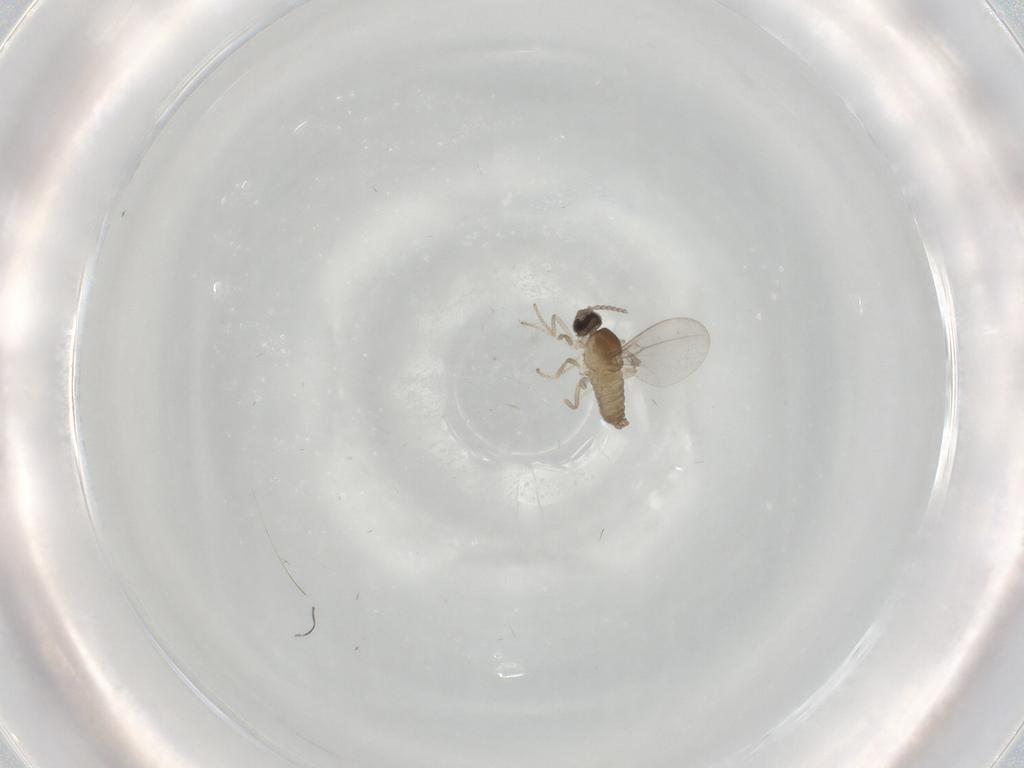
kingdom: Animalia
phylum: Arthropoda
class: Insecta
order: Diptera
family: Cecidomyiidae
